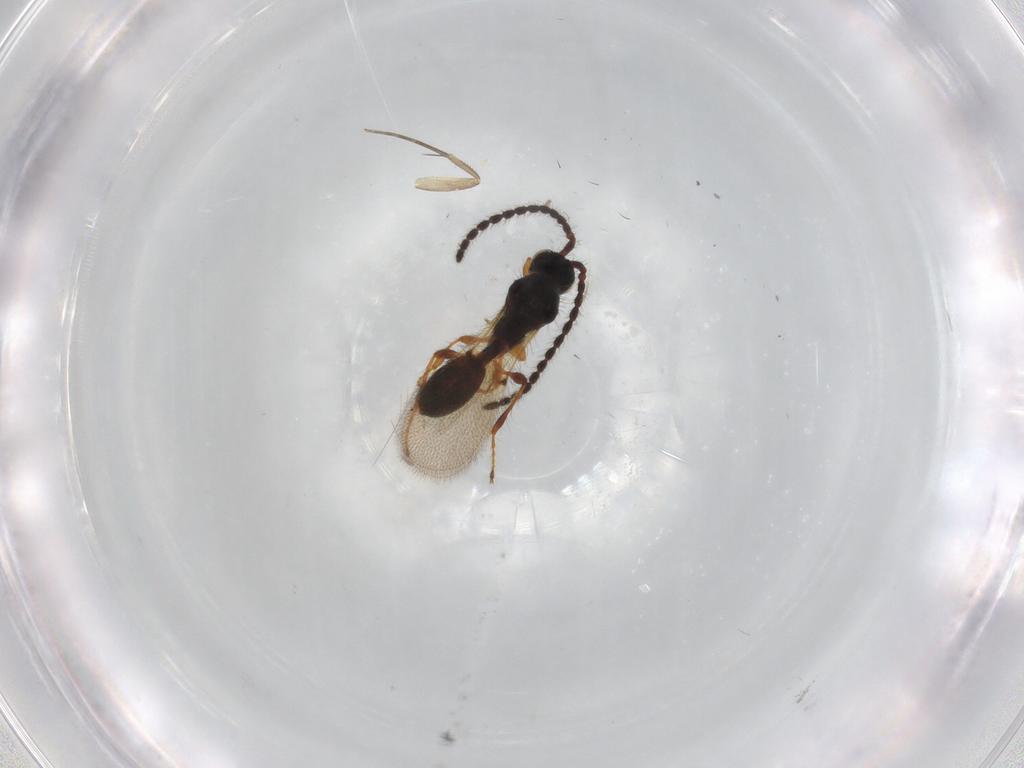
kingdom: Animalia
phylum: Arthropoda
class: Insecta
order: Hymenoptera
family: Diapriidae
